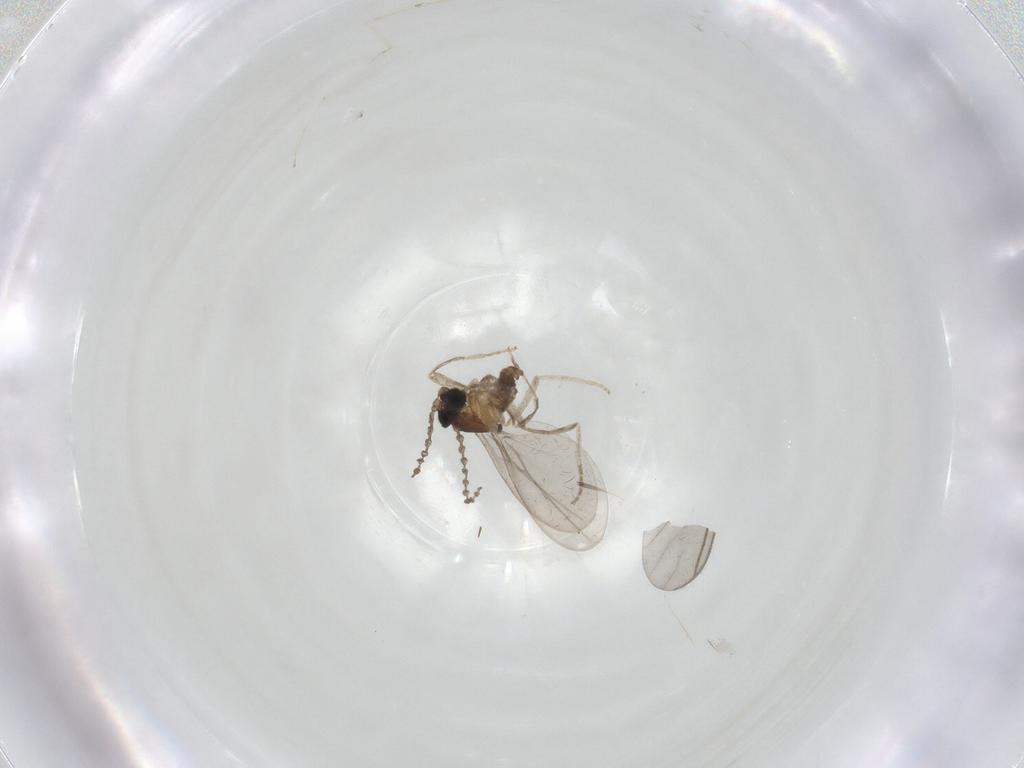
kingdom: Animalia
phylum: Arthropoda
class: Insecta
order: Diptera
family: Cecidomyiidae
